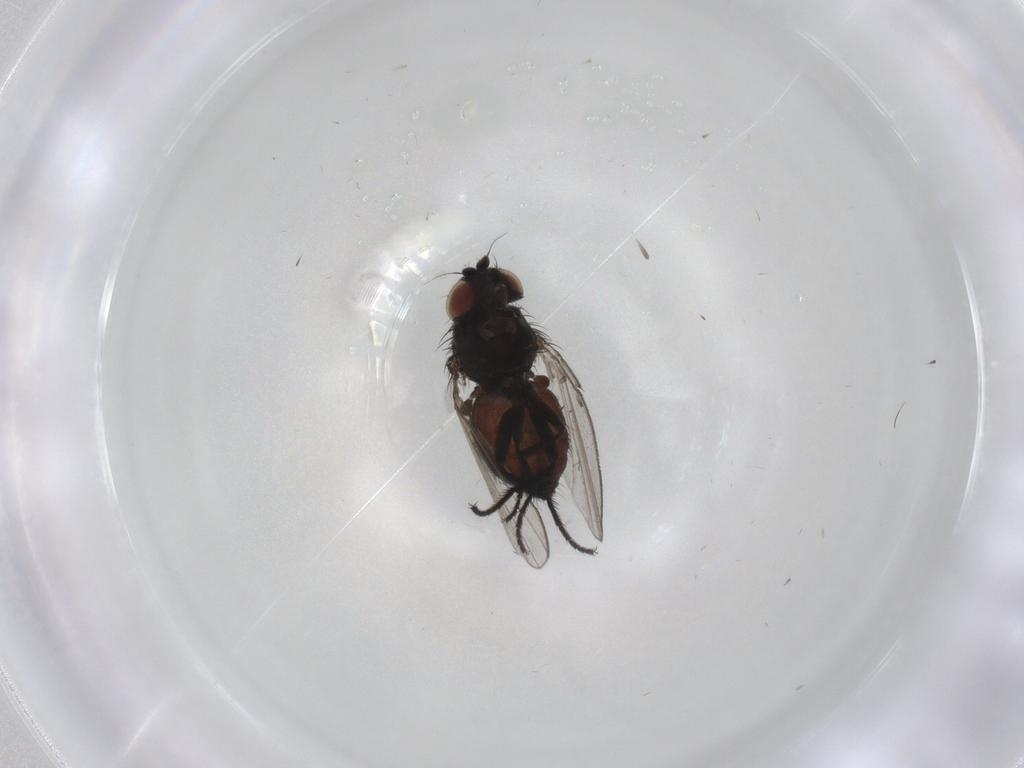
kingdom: Animalia
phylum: Arthropoda
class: Insecta
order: Diptera
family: Milichiidae
